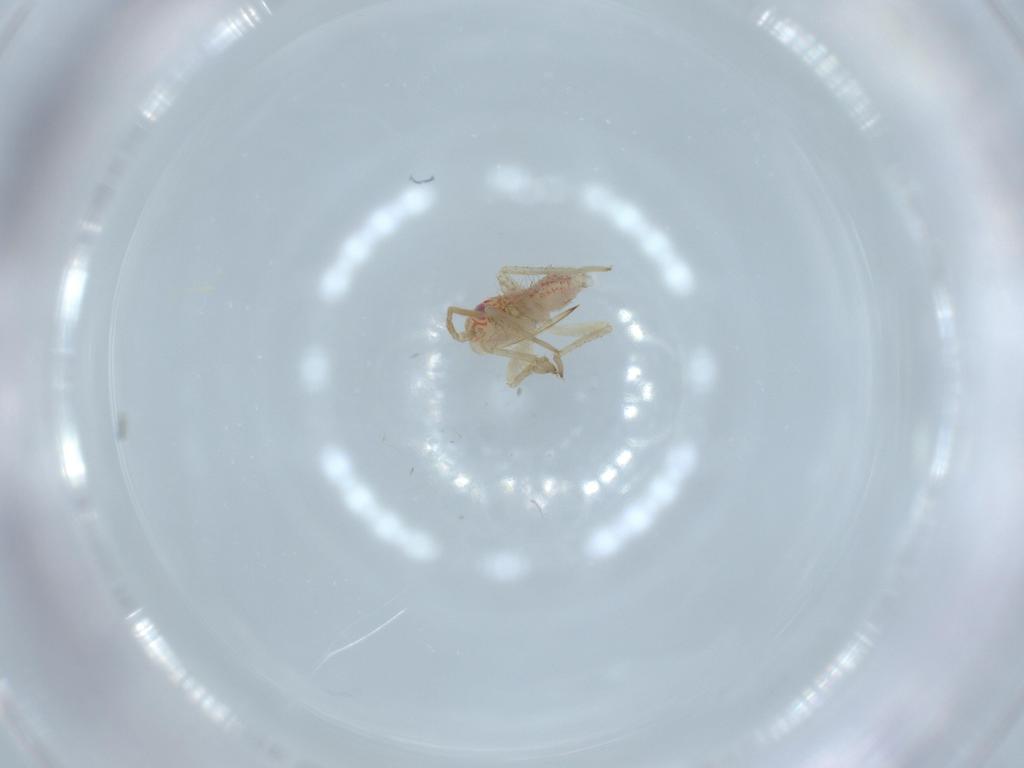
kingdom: Animalia
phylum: Arthropoda
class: Insecta
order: Hemiptera
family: Miridae
